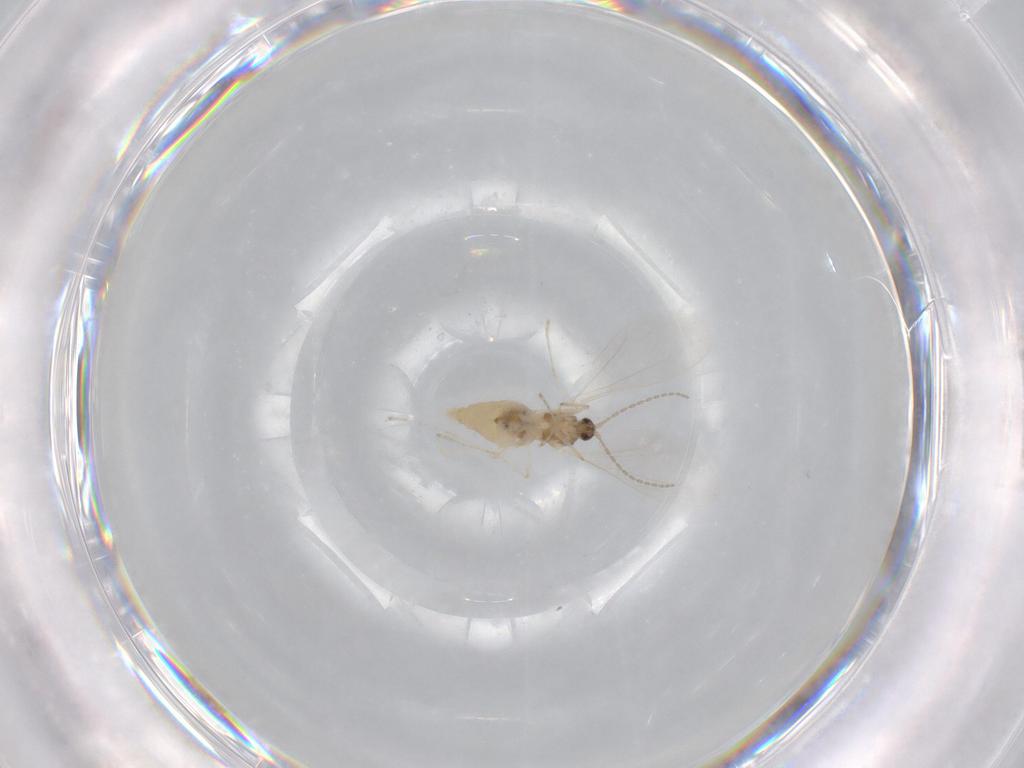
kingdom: Animalia
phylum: Arthropoda
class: Insecta
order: Diptera
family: Cecidomyiidae
